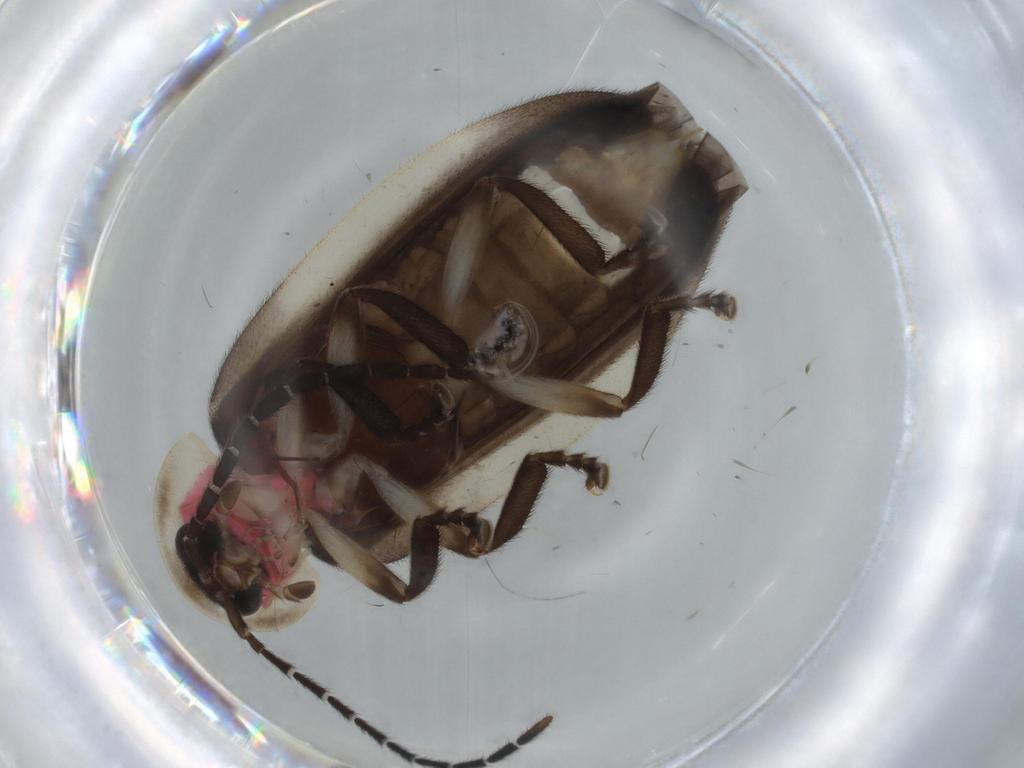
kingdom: Animalia
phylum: Arthropoda
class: Insecta
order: Coleoptera
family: Lampyridae
